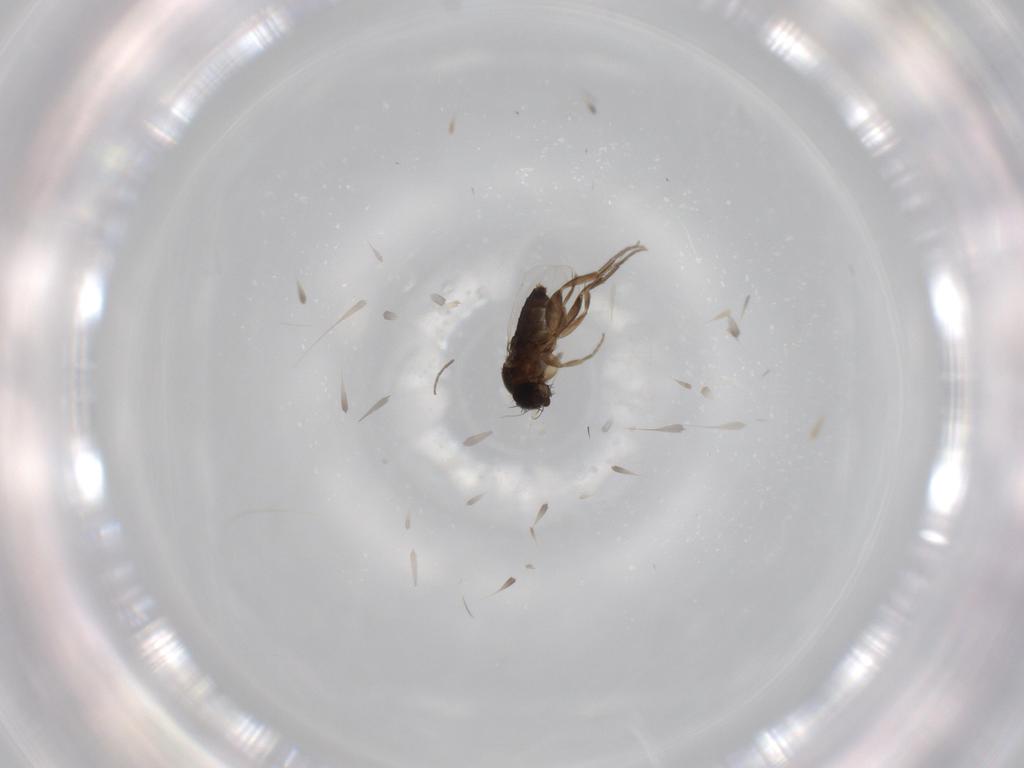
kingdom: Animalia
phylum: Arthropoda
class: Insecta
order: Diptera
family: Phoridae
